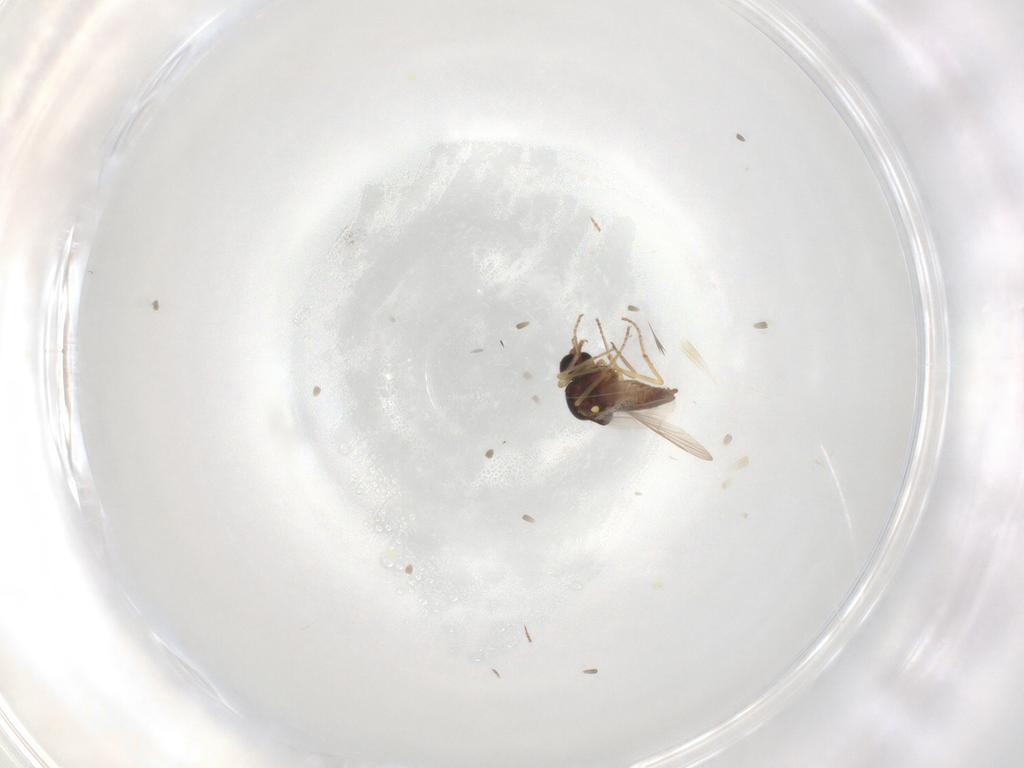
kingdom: Animalia
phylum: Arthropoda
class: Insecta
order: Diptera
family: Ceratopogonidae
